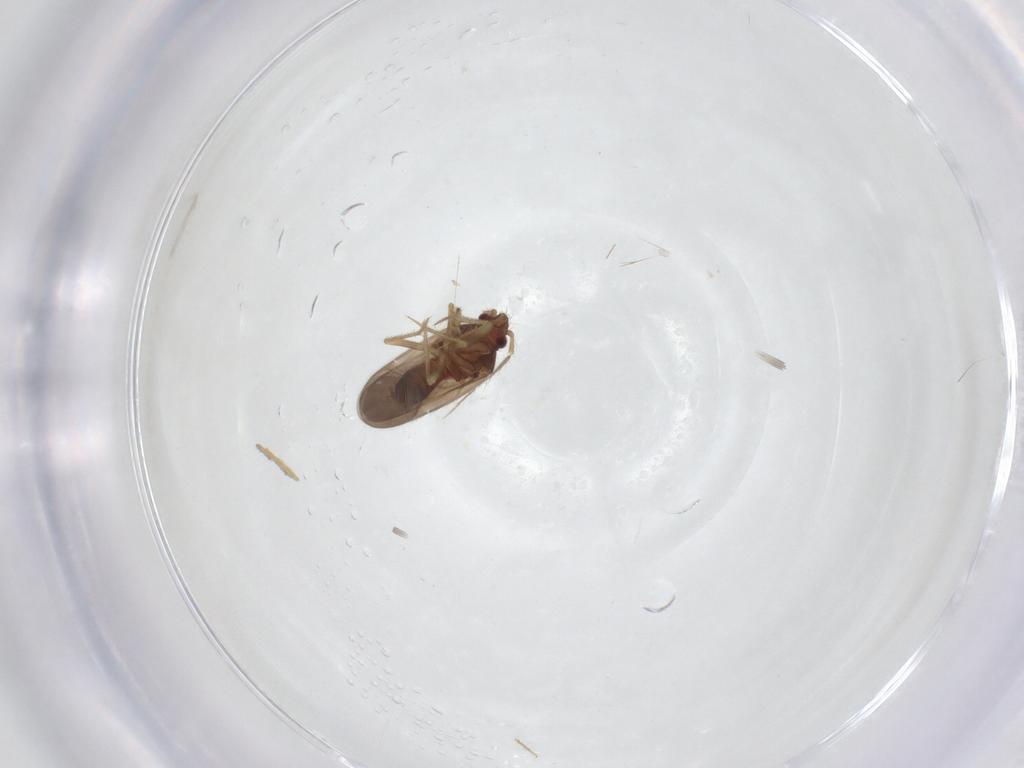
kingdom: Animalia
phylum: Arthropoda
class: Insecta
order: Hemiptera
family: Ceratocombidae
